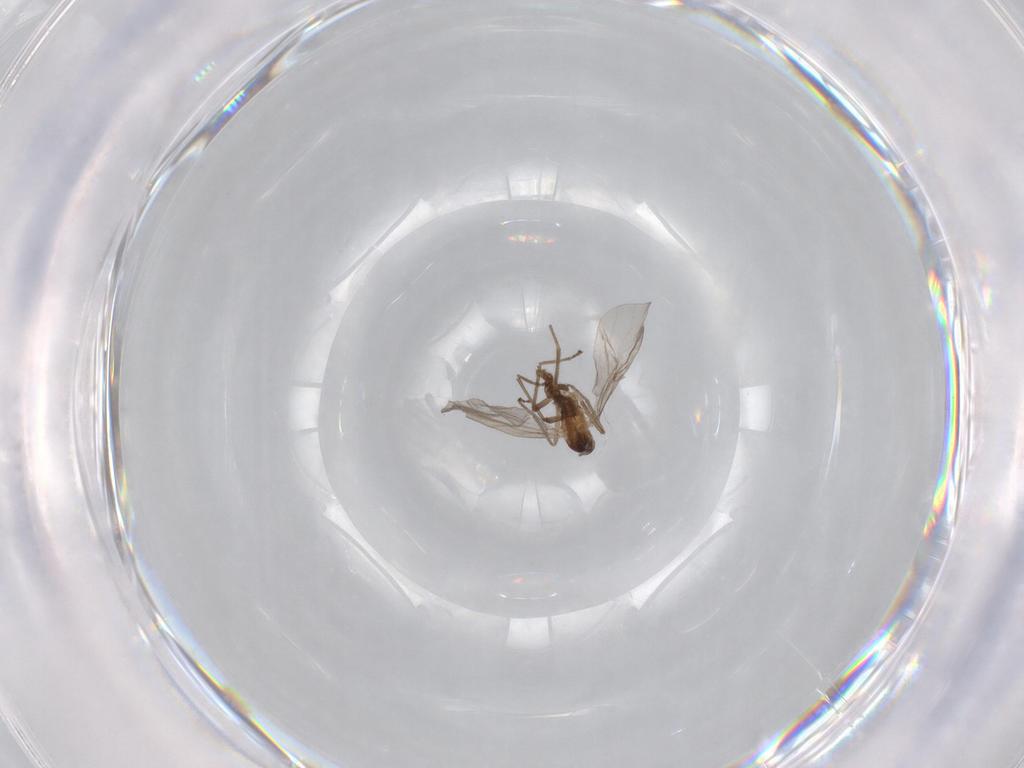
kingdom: Animalia
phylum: Arthropoda
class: Insecta
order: Diptera
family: Cecidomyiidae
